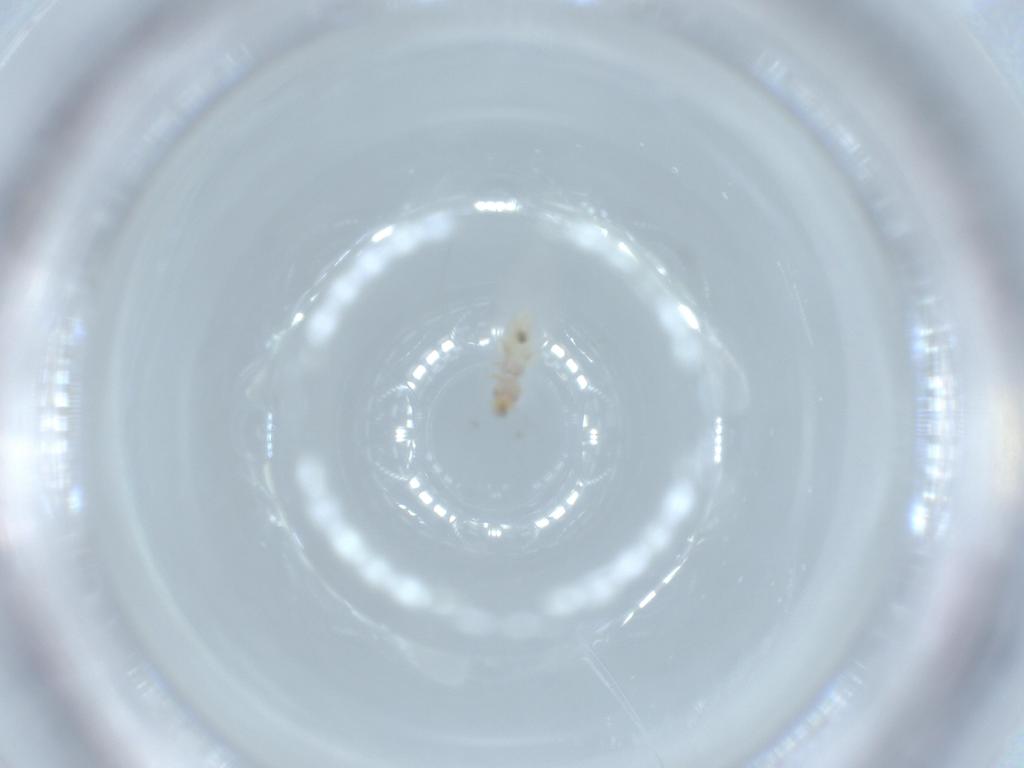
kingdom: Animalia
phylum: Arthropoda
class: Insecta
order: Psocodea
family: Liposcelididae
